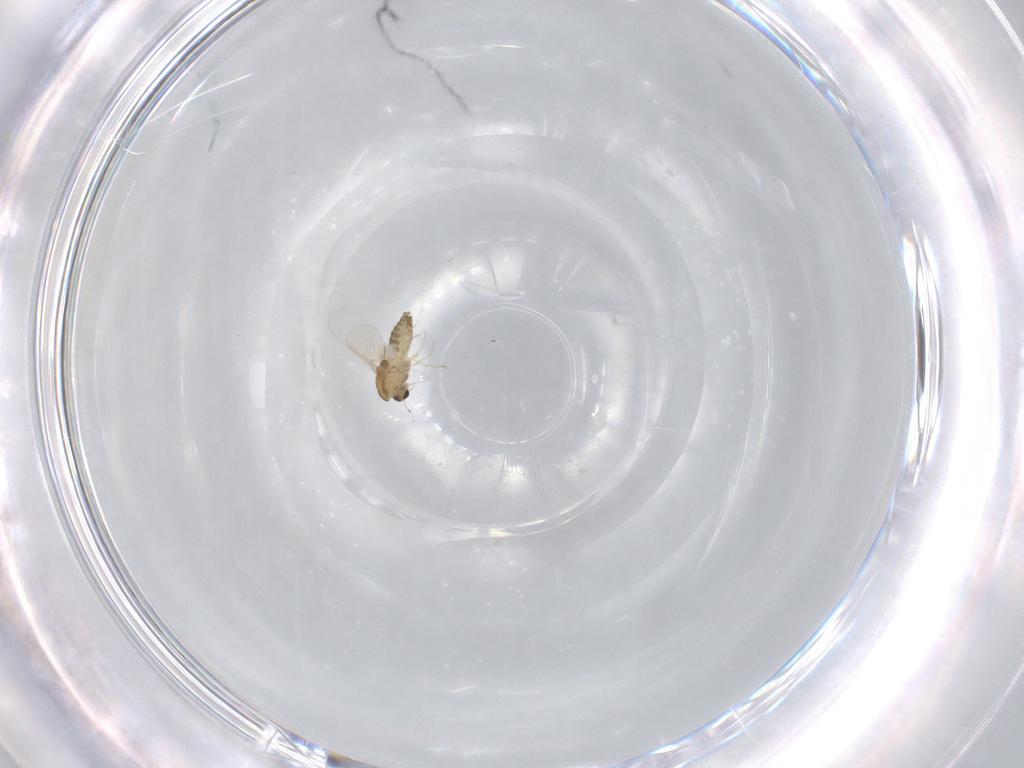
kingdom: Animalia
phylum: Arthropoda
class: Insecta
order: Diptera
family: Chironomidae
